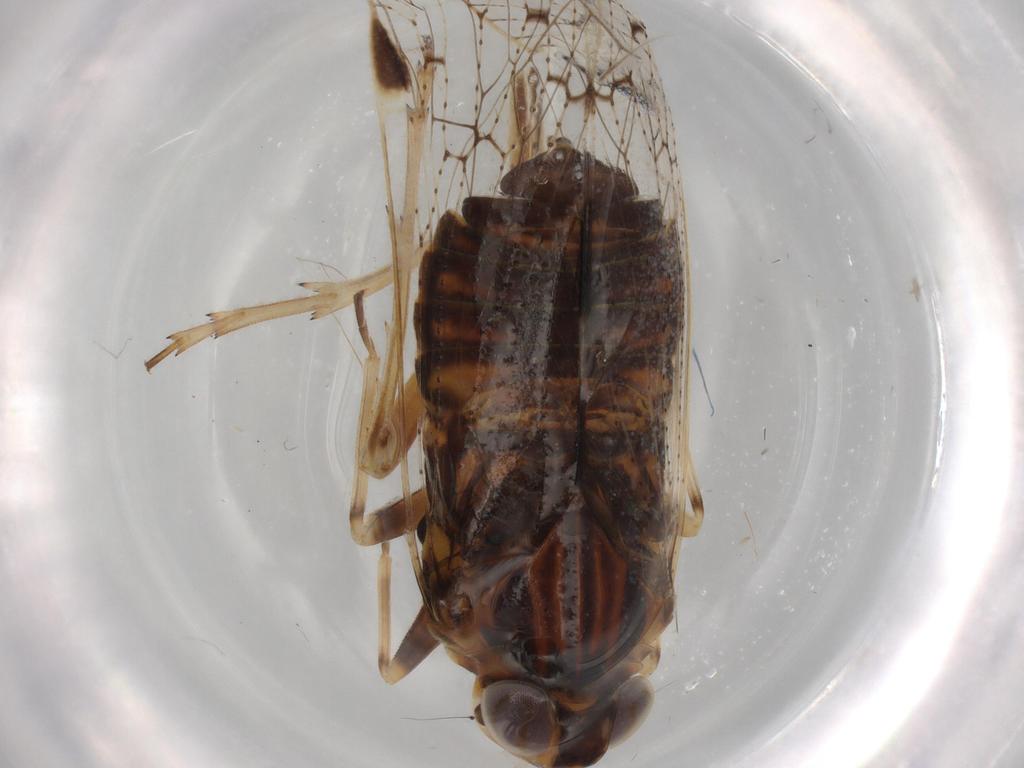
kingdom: Animalia
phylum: Arthropoda
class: Insecta
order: Hemiptera
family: Cixiidae
